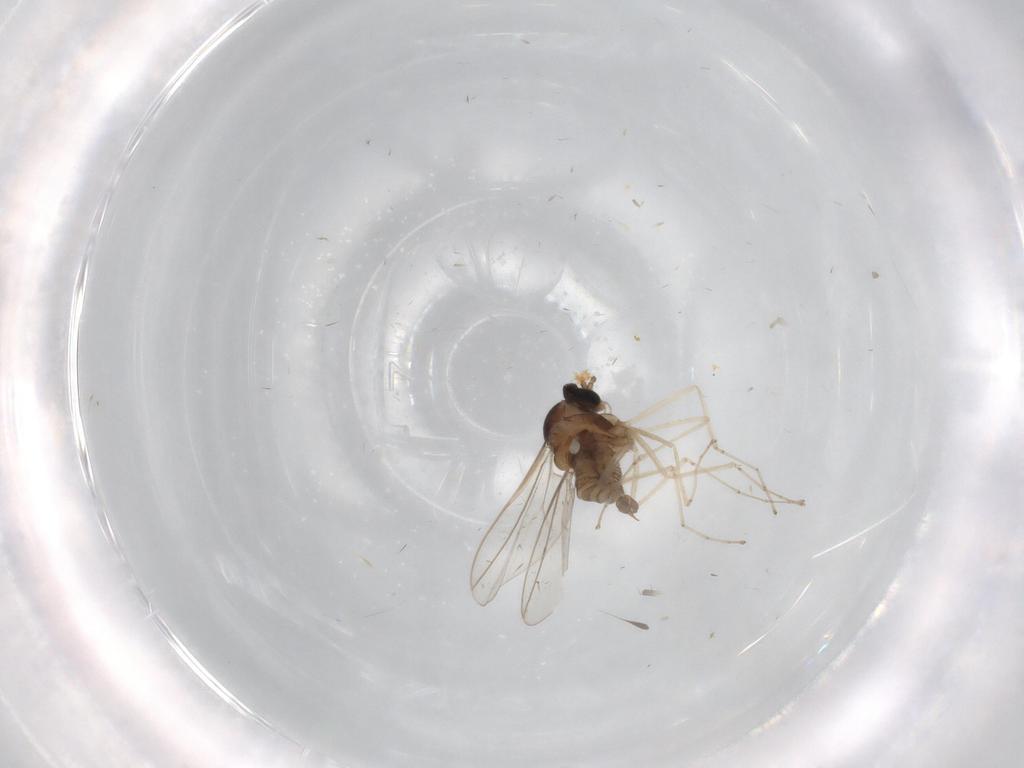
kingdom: Animalia
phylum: Arthropoda
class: Insecta
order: Diptera
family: Cecidomyiidae
